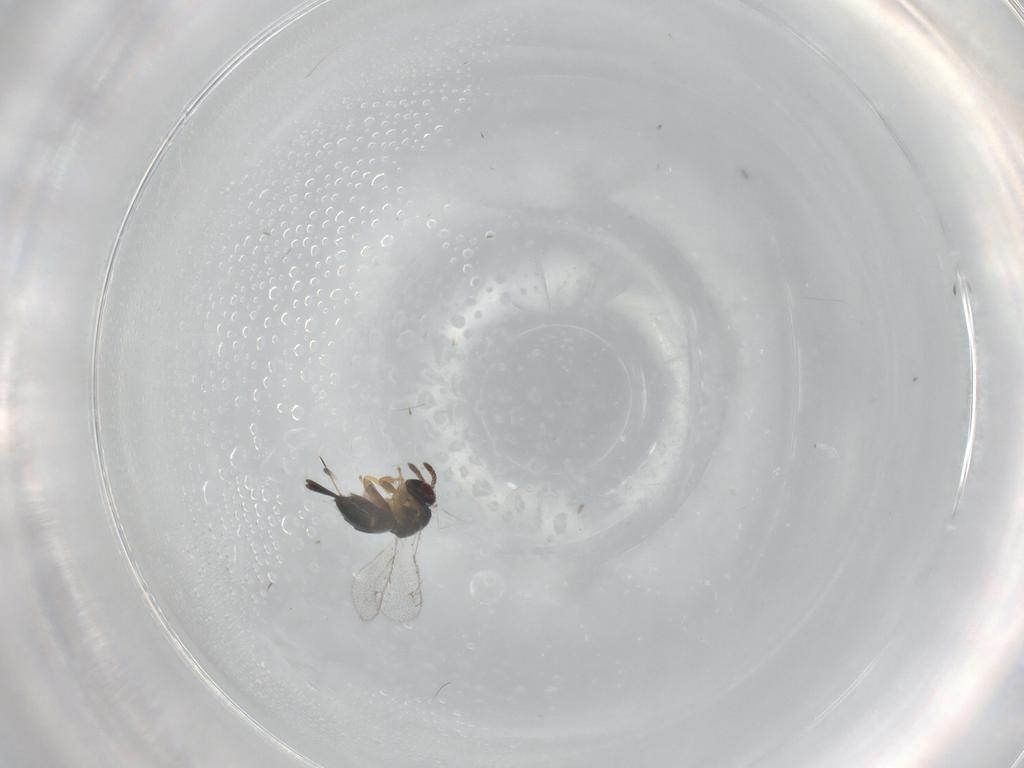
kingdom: Animalia
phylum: Arthropoda
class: Insecta
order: Hymenoptera
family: Torymidae
